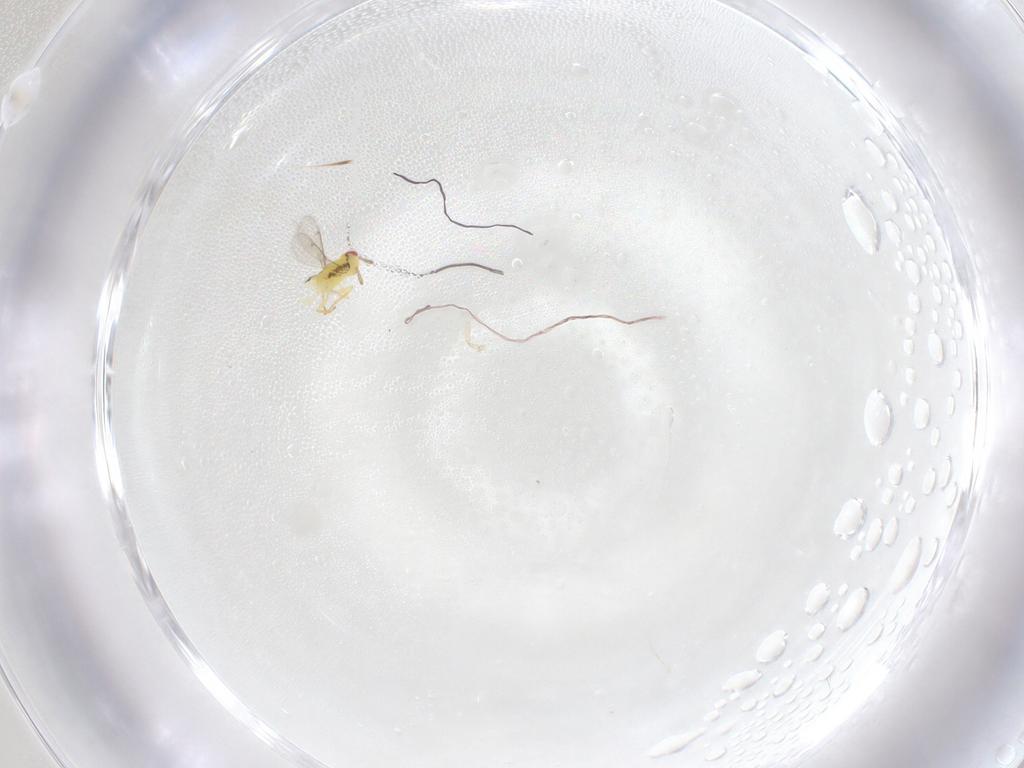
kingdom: Animalia
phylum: Arthropoda
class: Insecta
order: Hymenoptera
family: Aphelinidae
